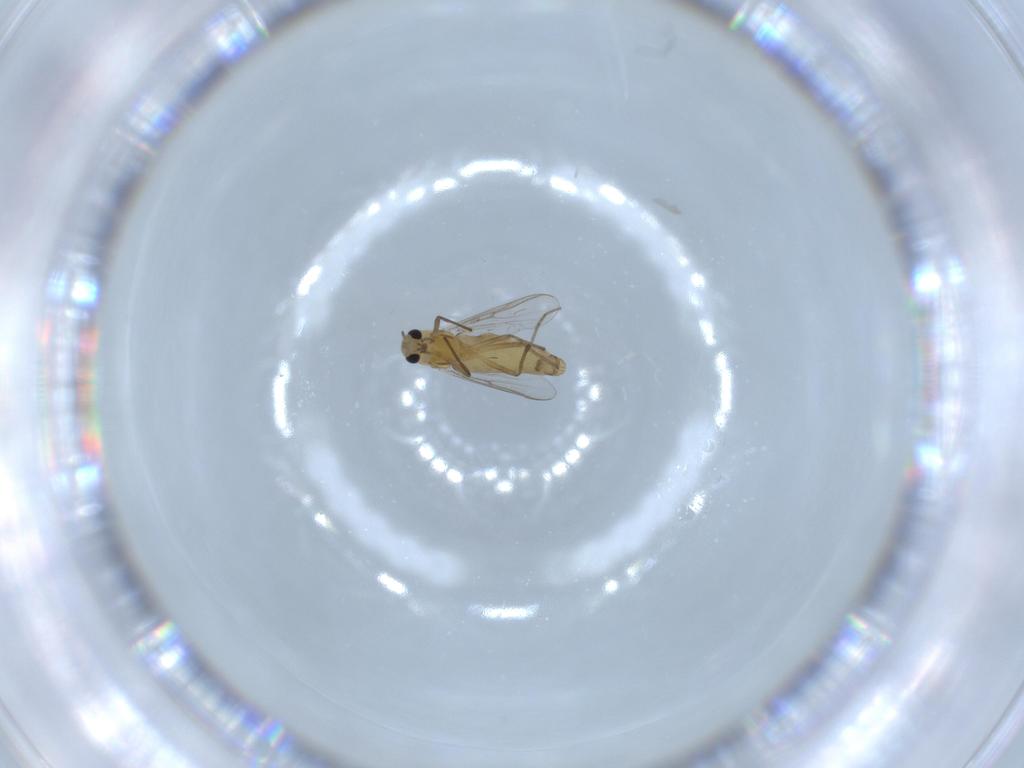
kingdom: Animalia
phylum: Arthropoda
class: Insecta
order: Diptera
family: Chironomidae
